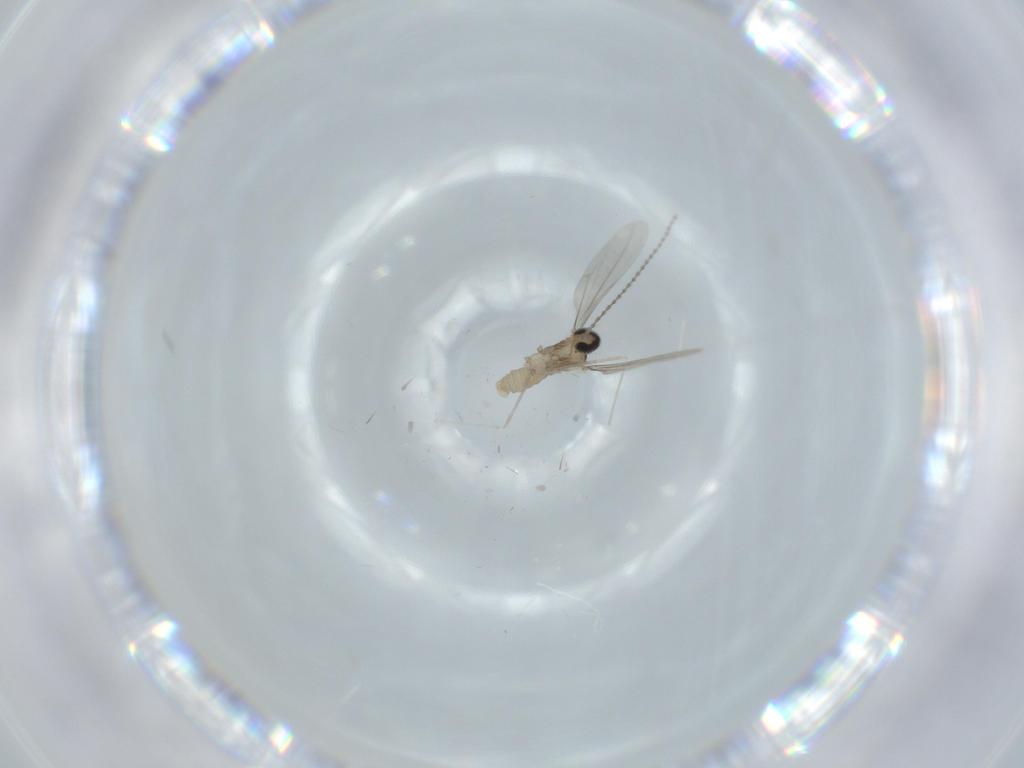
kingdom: Animalia
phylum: Arthropoda
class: Insecta
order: Diptera
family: Cecidomyiidae
